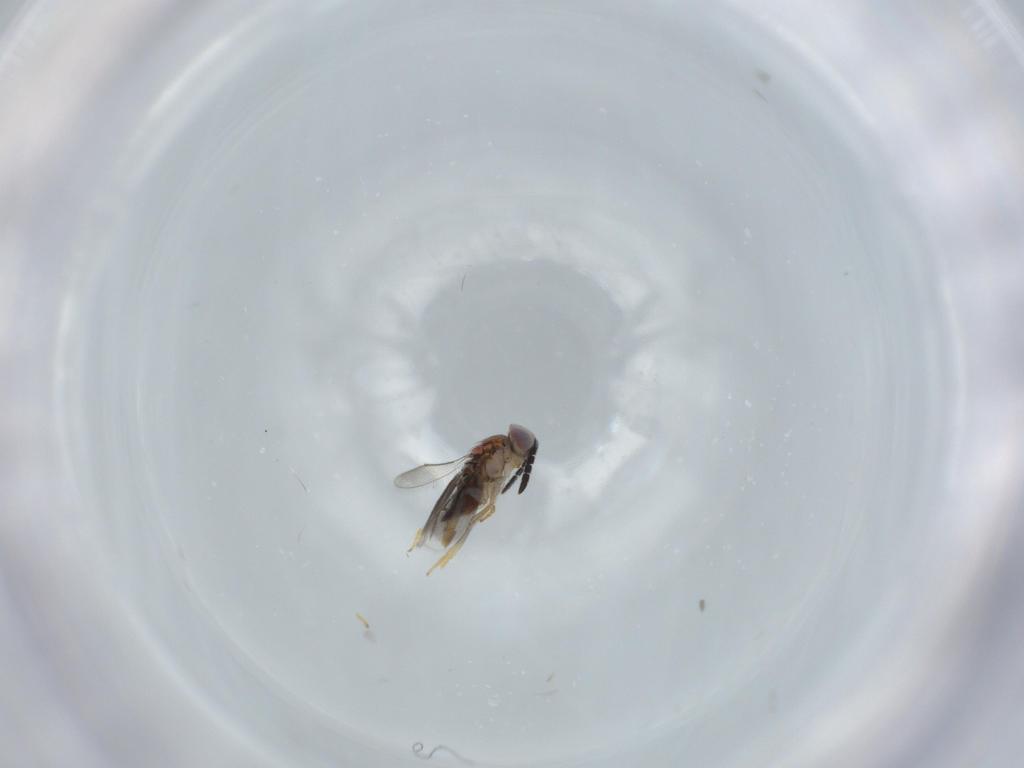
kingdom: Animalia
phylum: Arthropoda
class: Insecta
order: Hymenoptera
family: Aphelinidae
